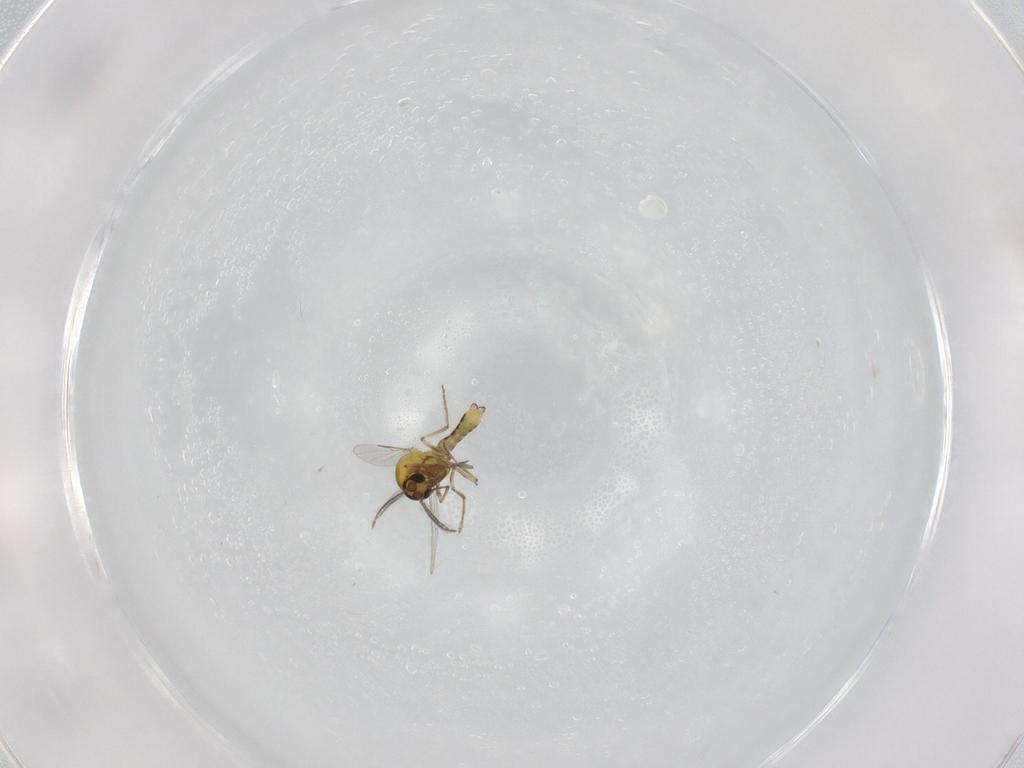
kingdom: Animalia
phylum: Arthropoda
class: Insecta
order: Diptera
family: Ceratopogonidae
